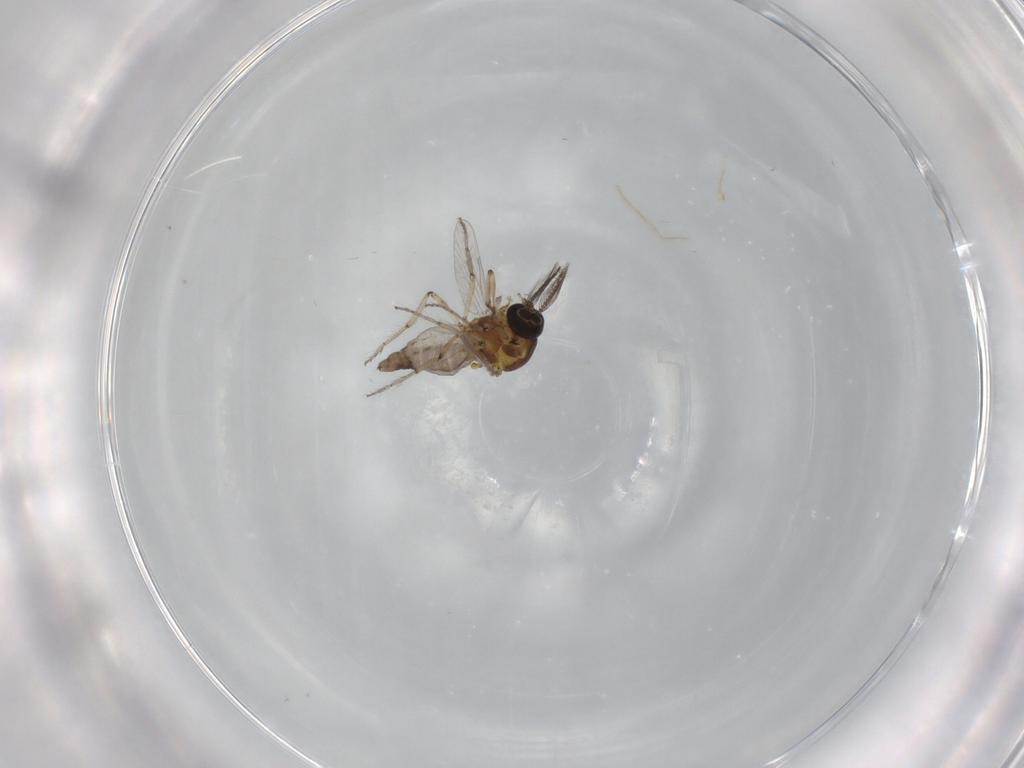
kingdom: Animalia
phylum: Arthropoda
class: Insecta
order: Diptera
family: Ceratopogonidae
